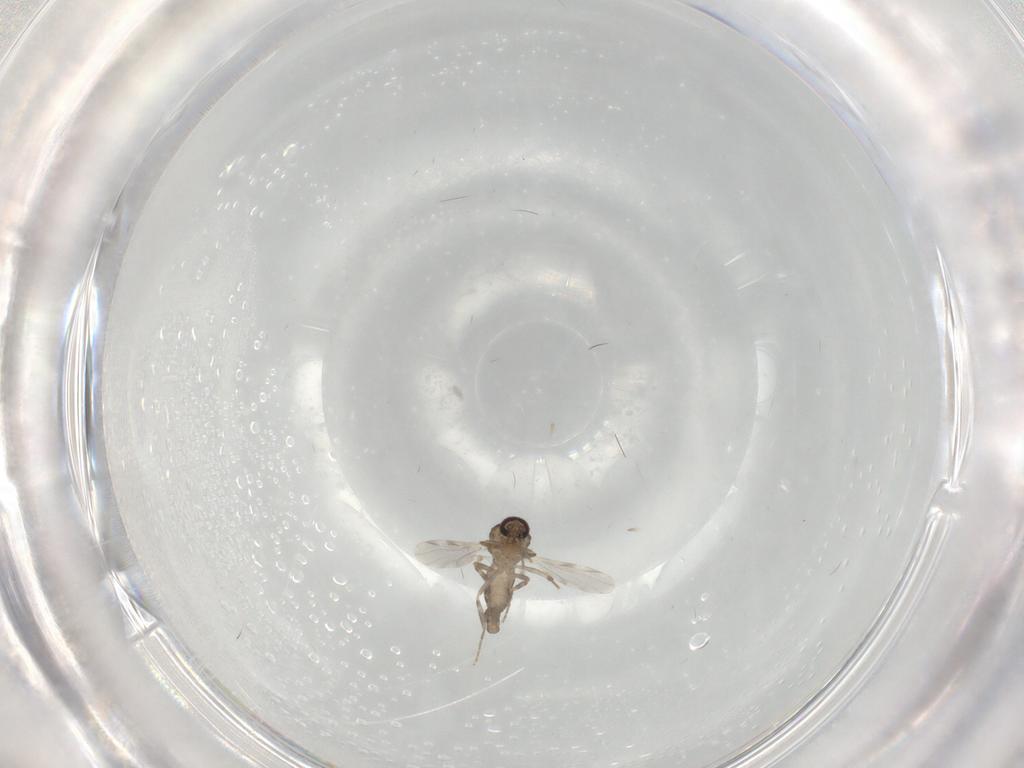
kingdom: Animalia
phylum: Arthropoda
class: Insecta
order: Diptera
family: Ceratopogonidae
